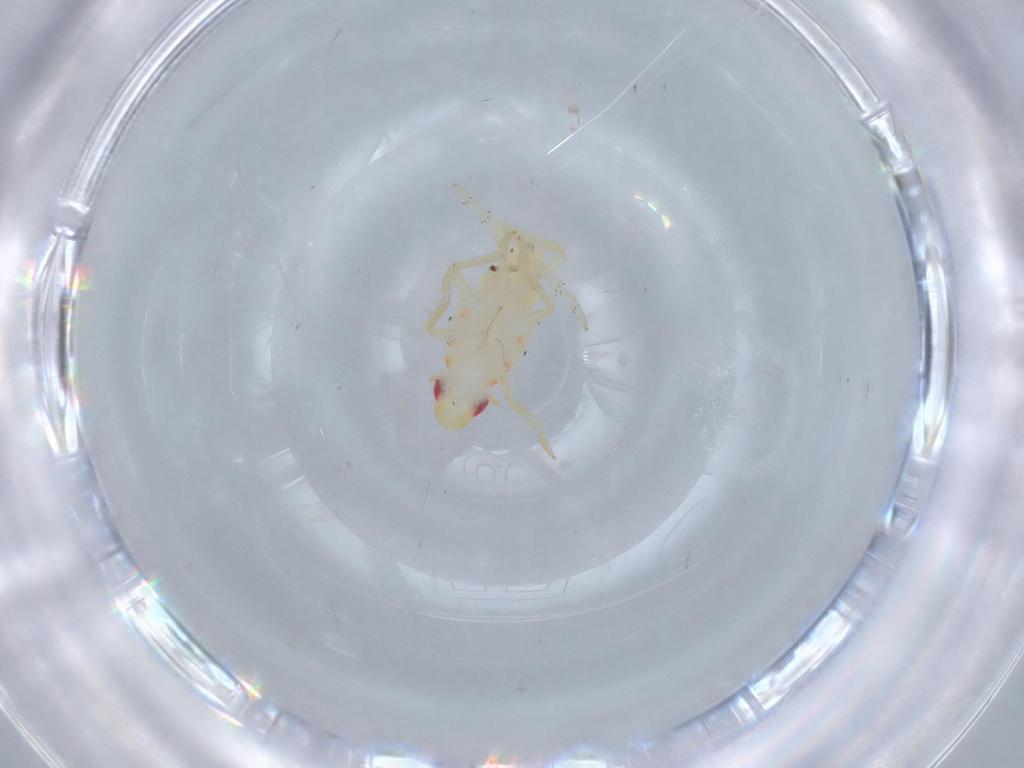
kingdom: Animalia
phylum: Arthropoda
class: Insecta
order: Hemiptera
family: Tropiduchidae
